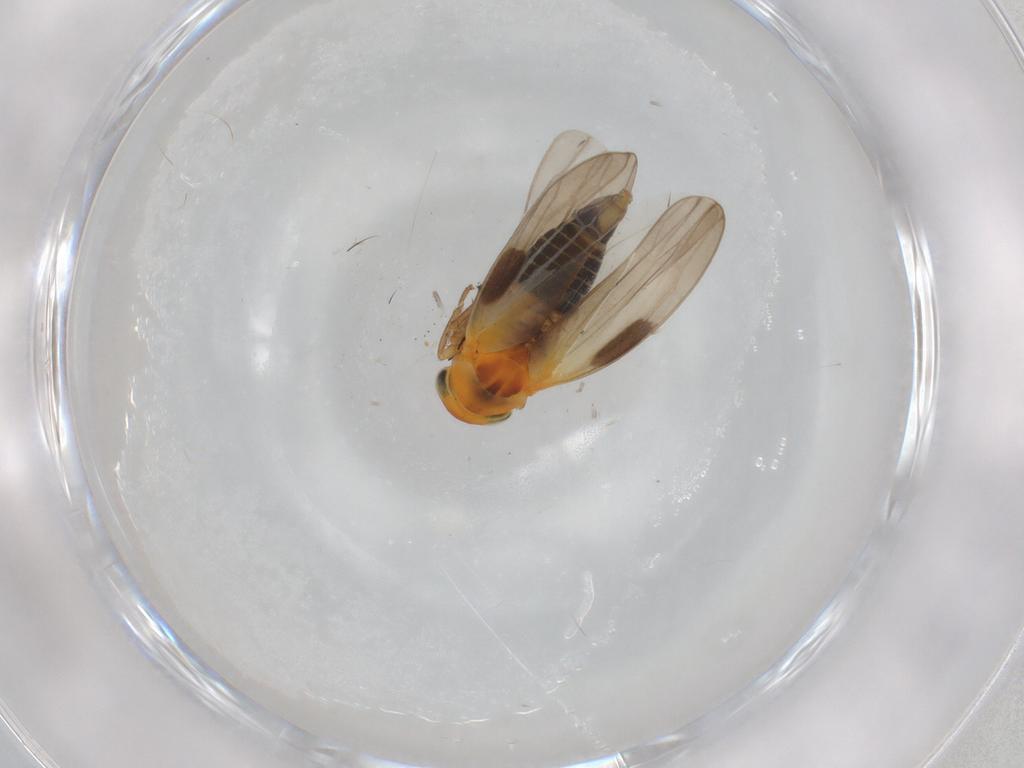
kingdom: Animalia
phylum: Arthropoda
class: Insecta
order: Hemiptera
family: Cicadellidae
